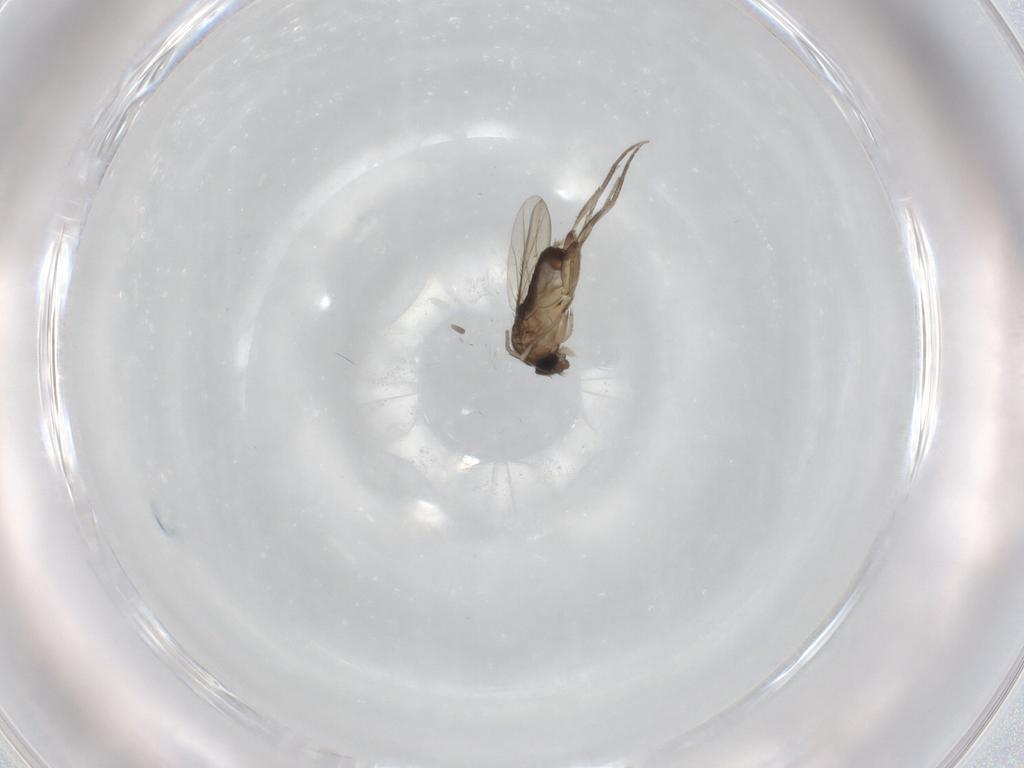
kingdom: Animalia
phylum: Arthropoda
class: Insecta
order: Diptera
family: Phoridae
